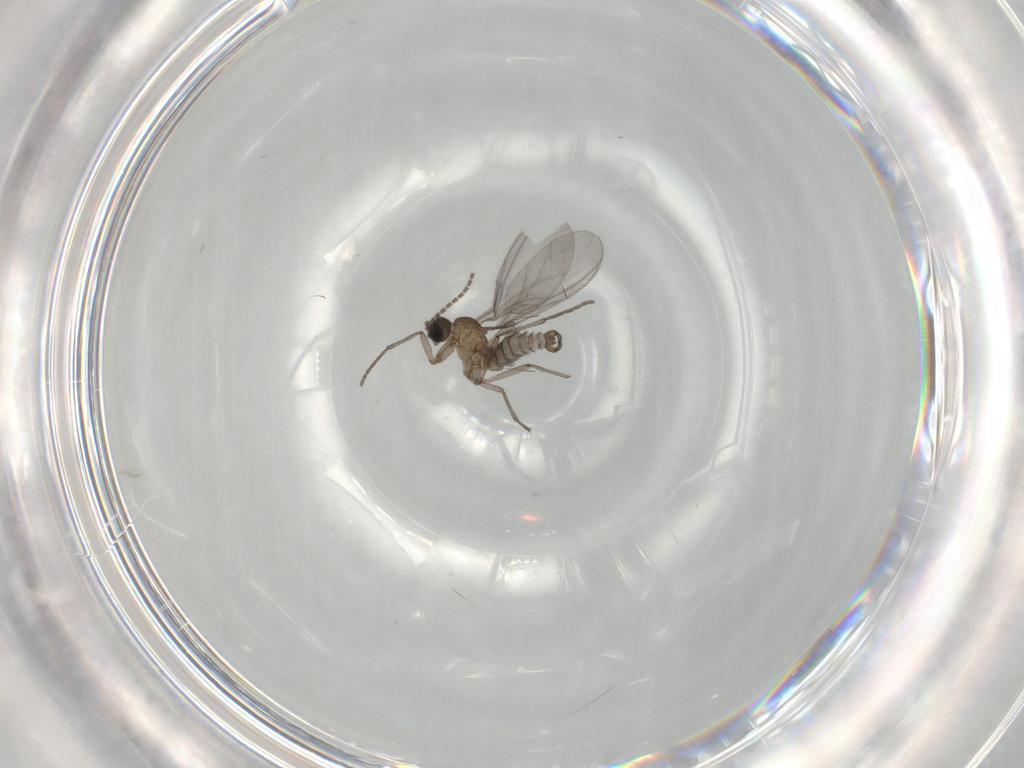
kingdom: Animalia
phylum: Arthropoda
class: Insecta
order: Diptera
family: Sciaridae
